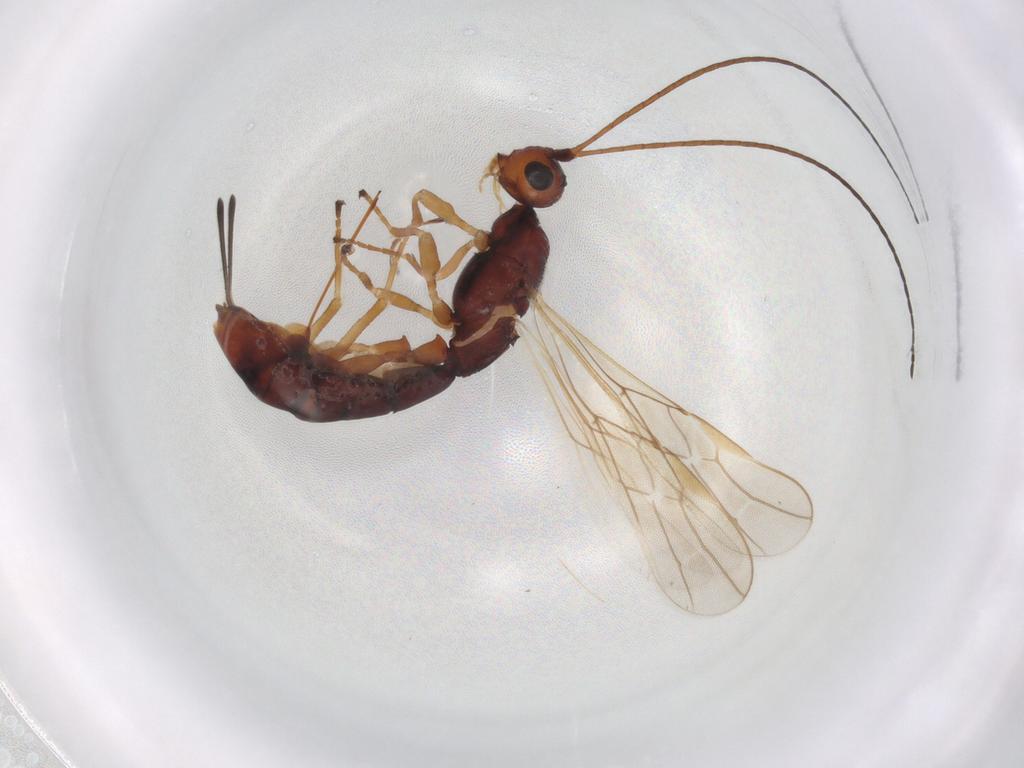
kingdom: Animalia
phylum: Arthropoda
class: Insecta
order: Hymenoptera
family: Braconidae
